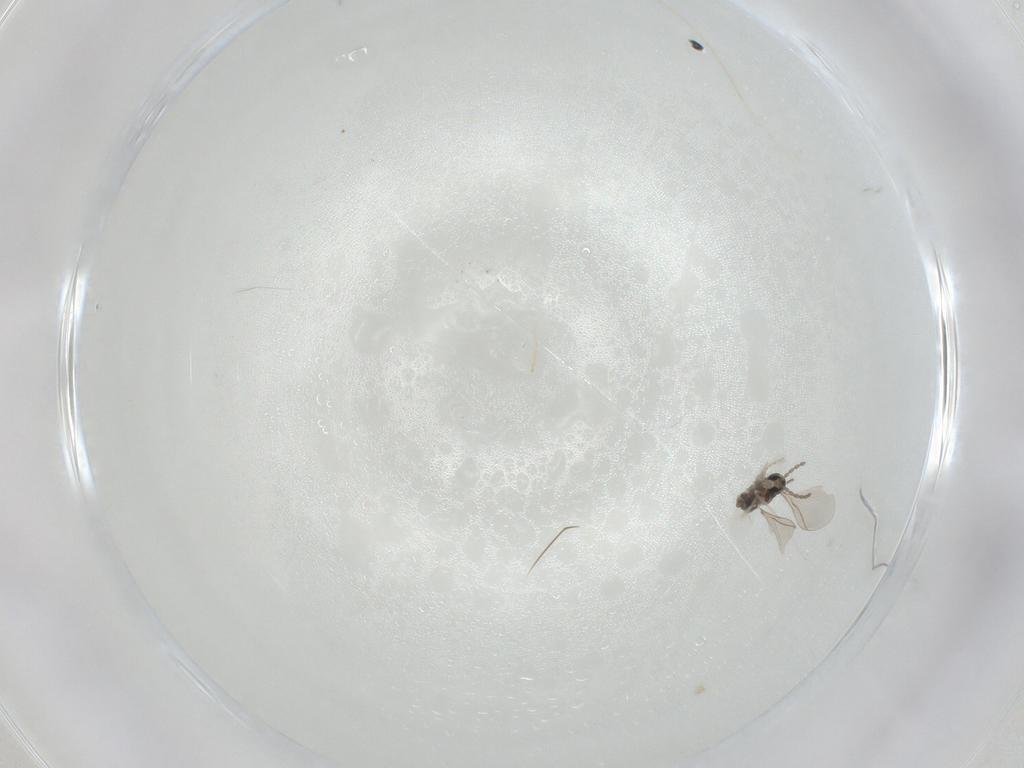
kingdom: Animalia
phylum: Arthropoda
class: Insecta
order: Diptera
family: Cecidomyiidae
